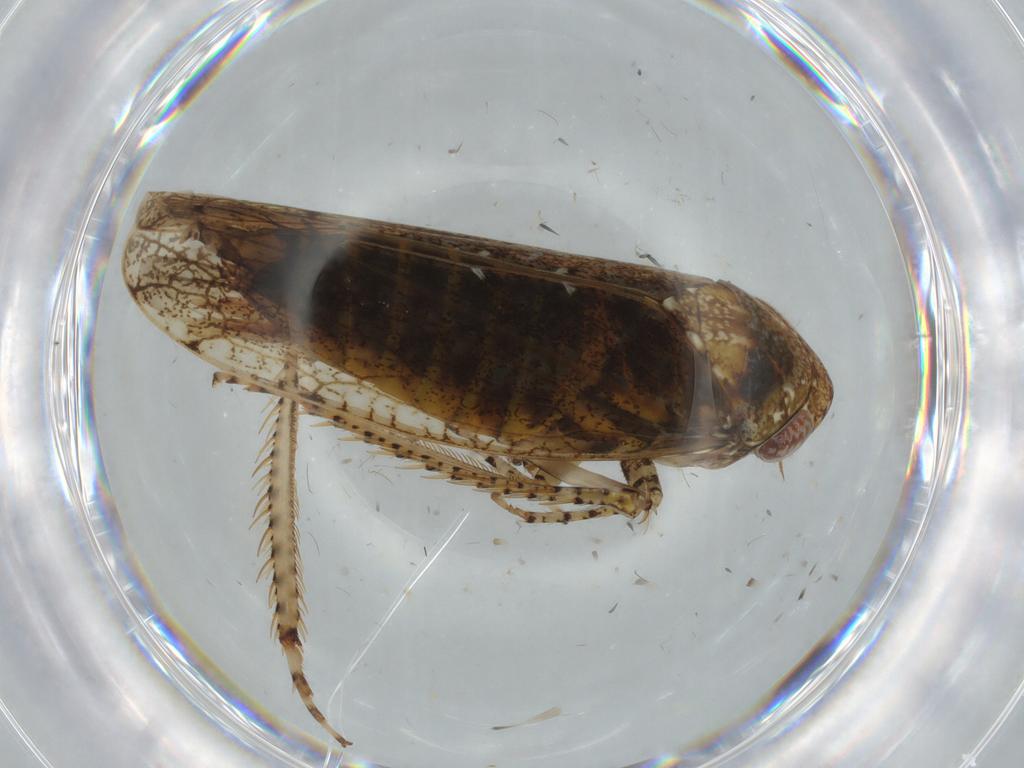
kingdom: Animalia
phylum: Arthropoda
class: Insecta
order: Hemiptera
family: Cicadellidae
